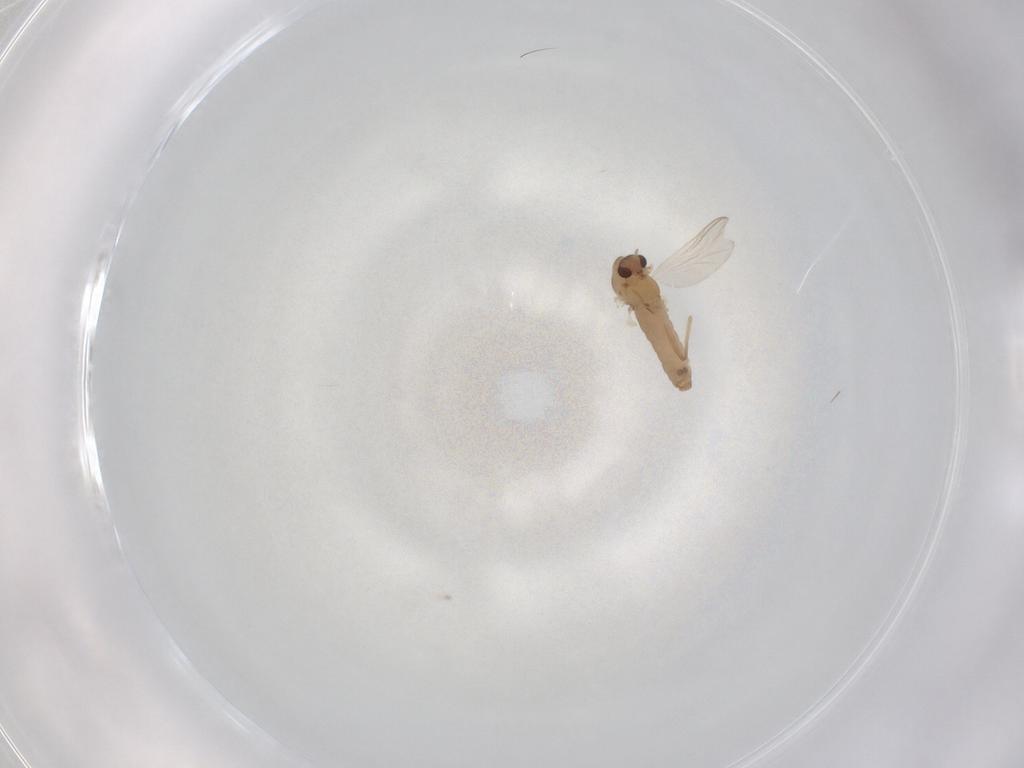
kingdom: Animalia
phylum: Arthropoda
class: Insecta
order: Diptera
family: Chironomidae
